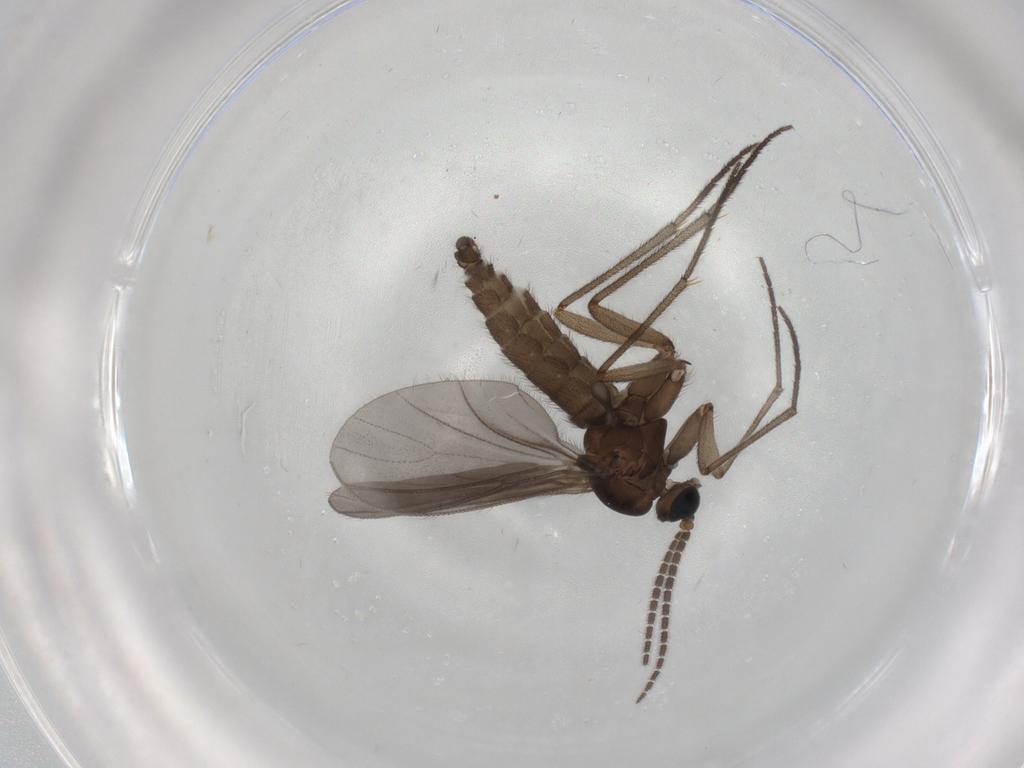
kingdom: Animalia
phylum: Arthropoda
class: Insecta
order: Diptera
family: Sciaridae
